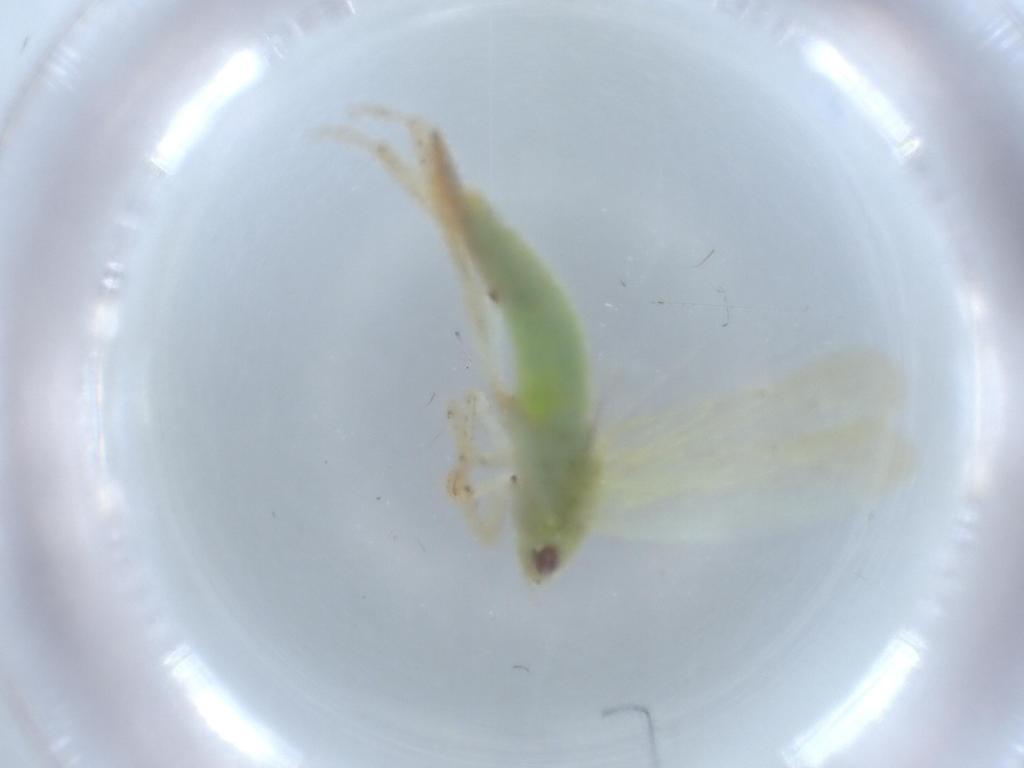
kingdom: Animalia
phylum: Arthropoda
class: Insecta
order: Hemiptera
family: Cicadellidae
